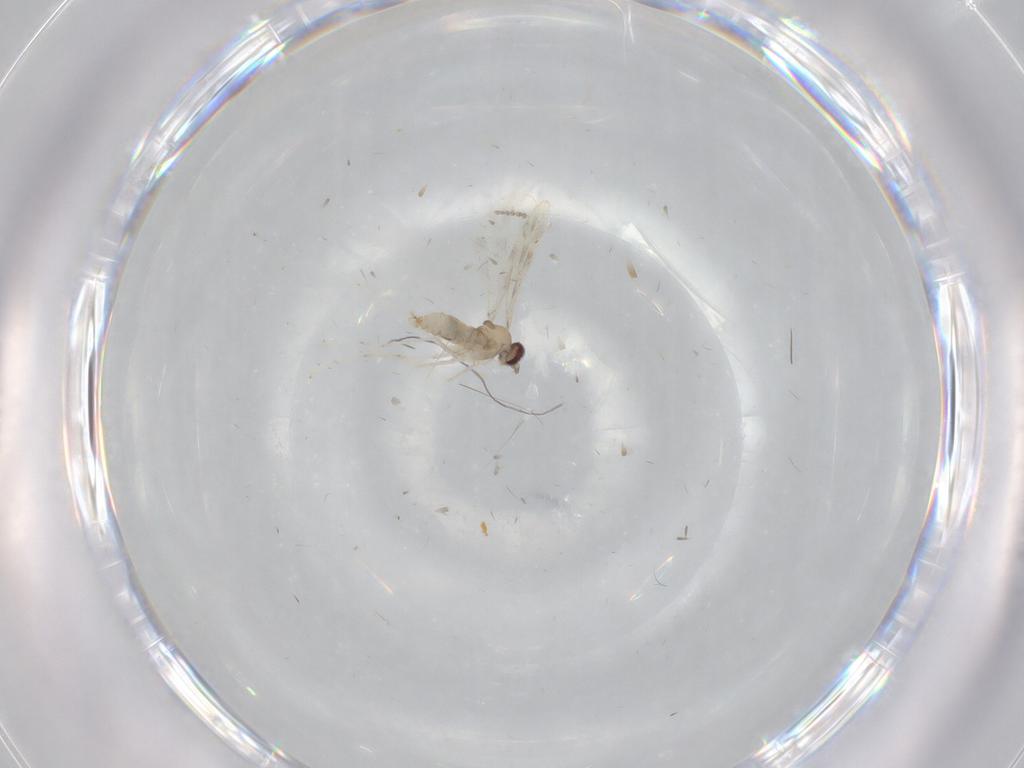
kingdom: Animalia
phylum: Arthropoda
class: Insecta
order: Diptera
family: Cecidomyiidae
